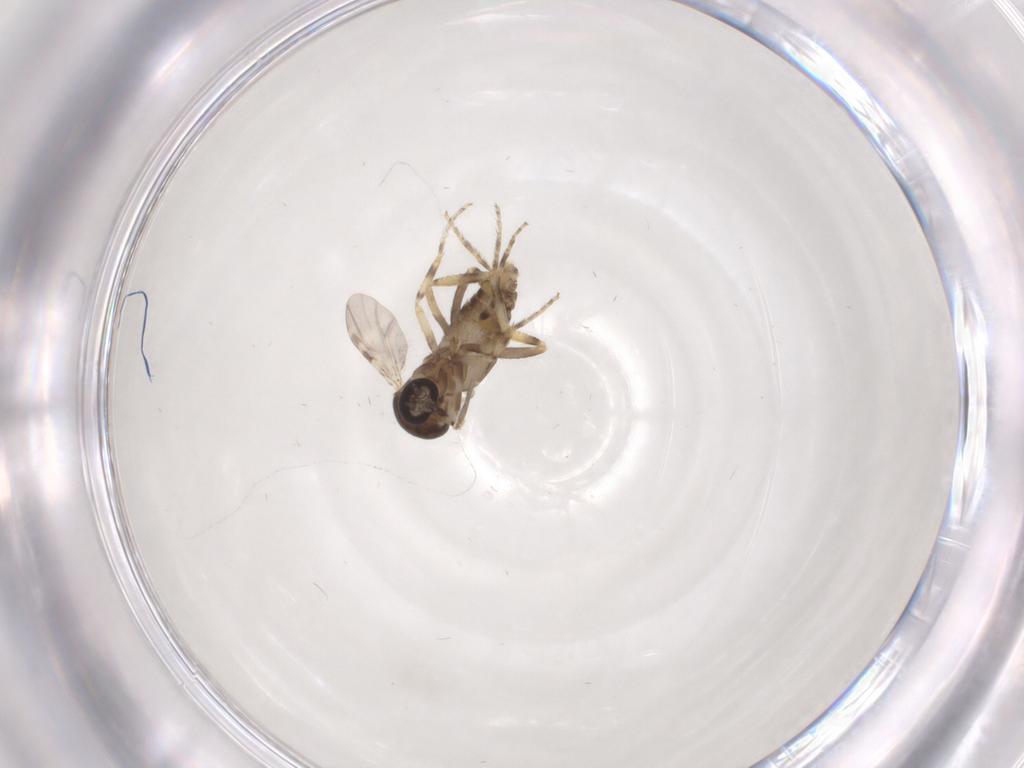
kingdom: Animalia
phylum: Arthropoda
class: Insecta
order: Diptera
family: Ceratopogonidae
